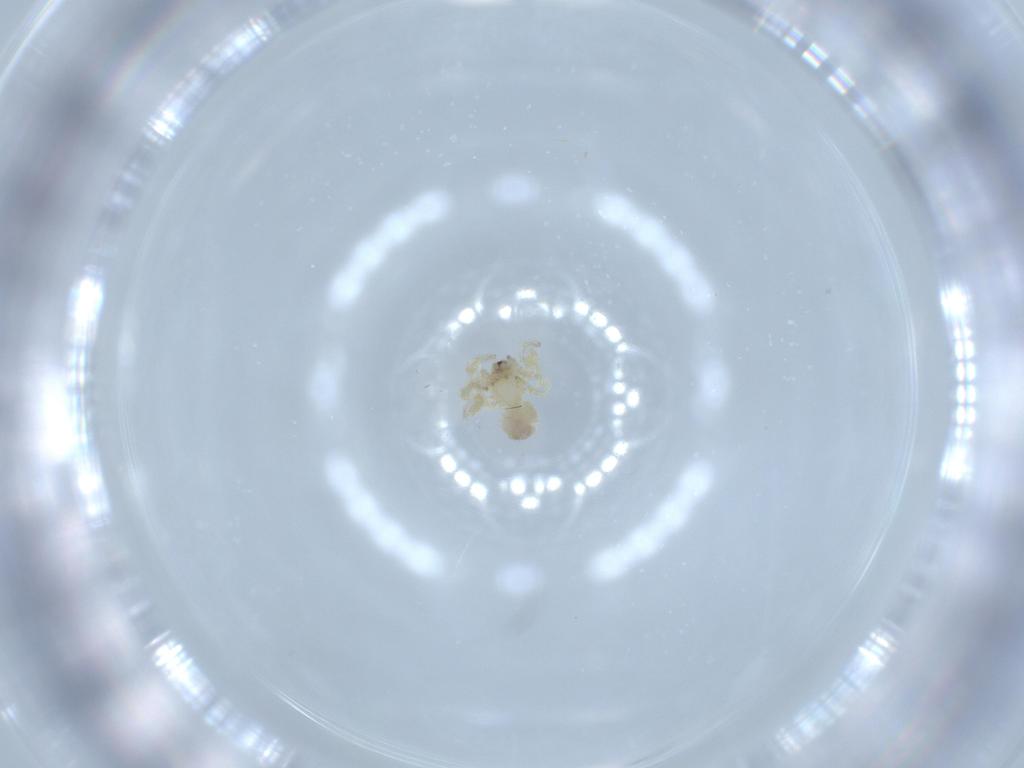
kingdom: Animalia
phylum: Arthropoda
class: Arachnida
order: Araneae
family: Oonopidae
